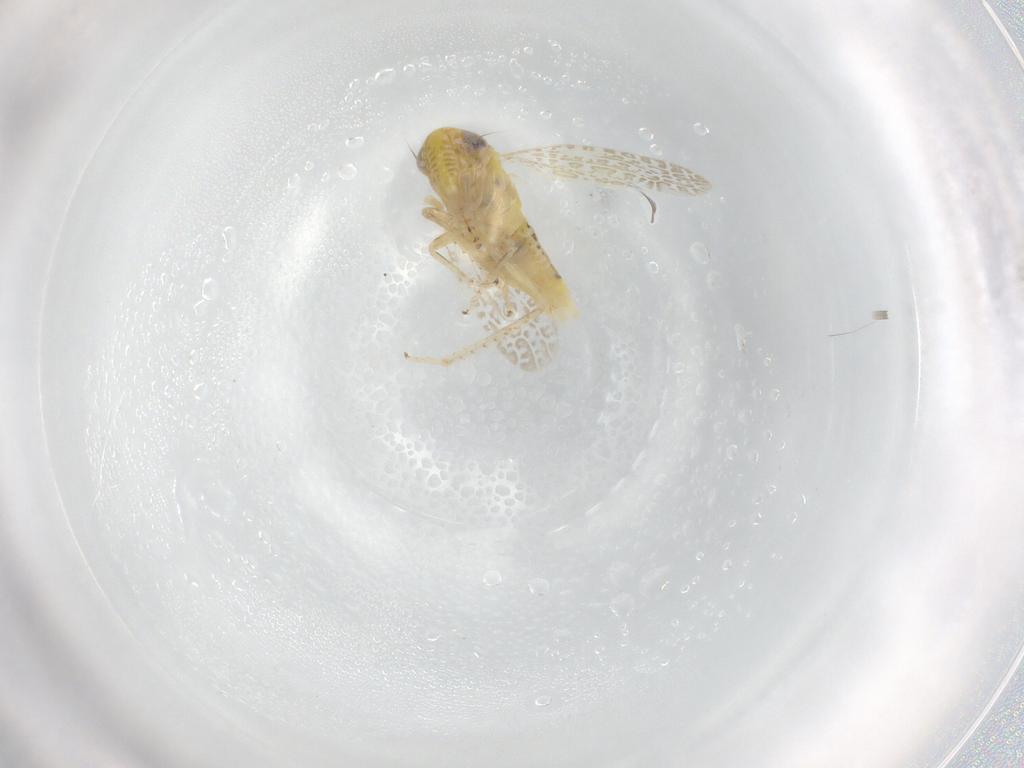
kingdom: Animalia
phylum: Arthropoda
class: Insecta
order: Hemiptera
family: Cicadellidae
